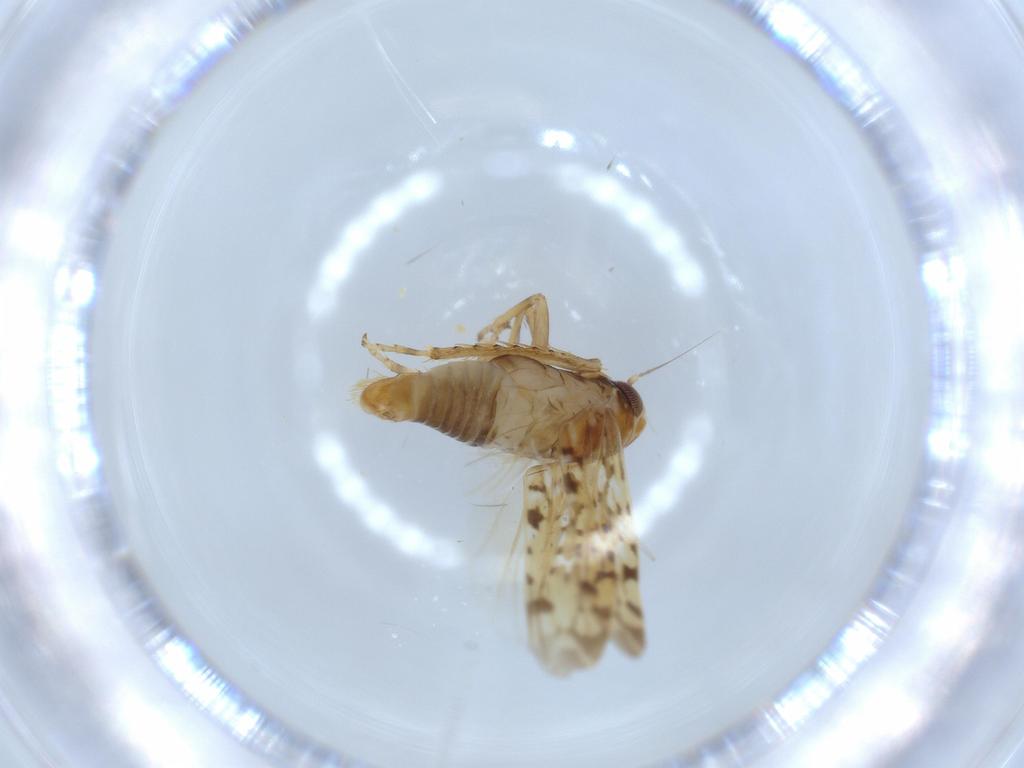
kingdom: Animalia
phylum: Arthropoda
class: Insecta
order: Hemiptera
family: Cicadellidae
